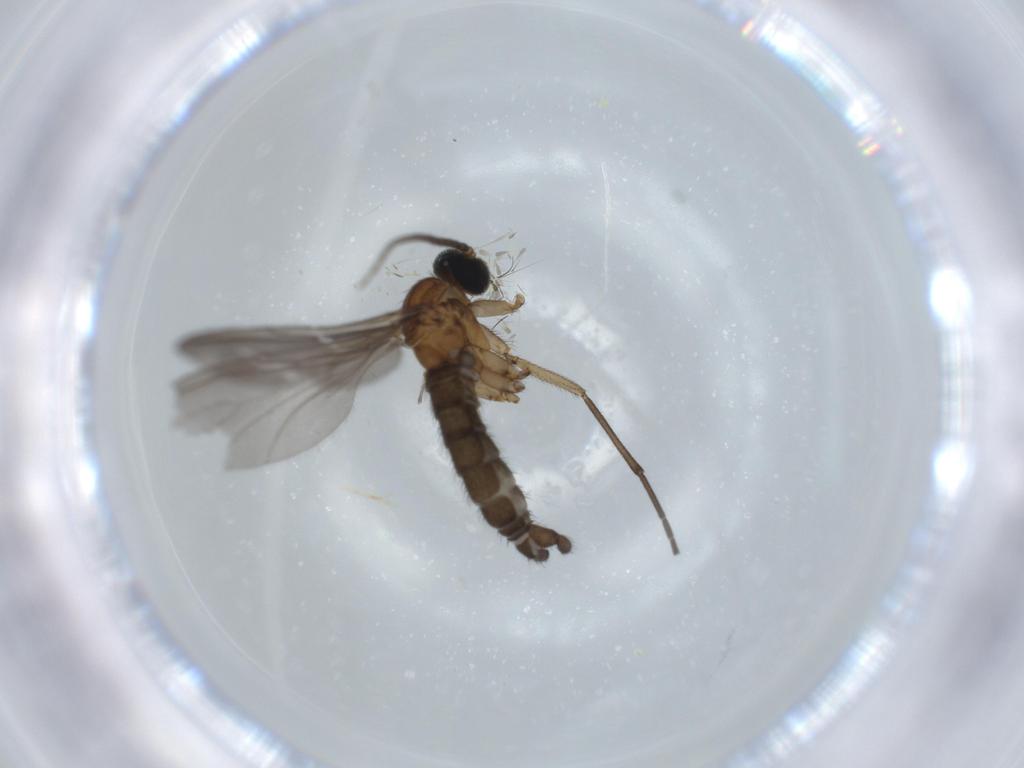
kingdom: Animalia
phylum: Arthropoda
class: Insecta
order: Diptera
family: Sciaridae
